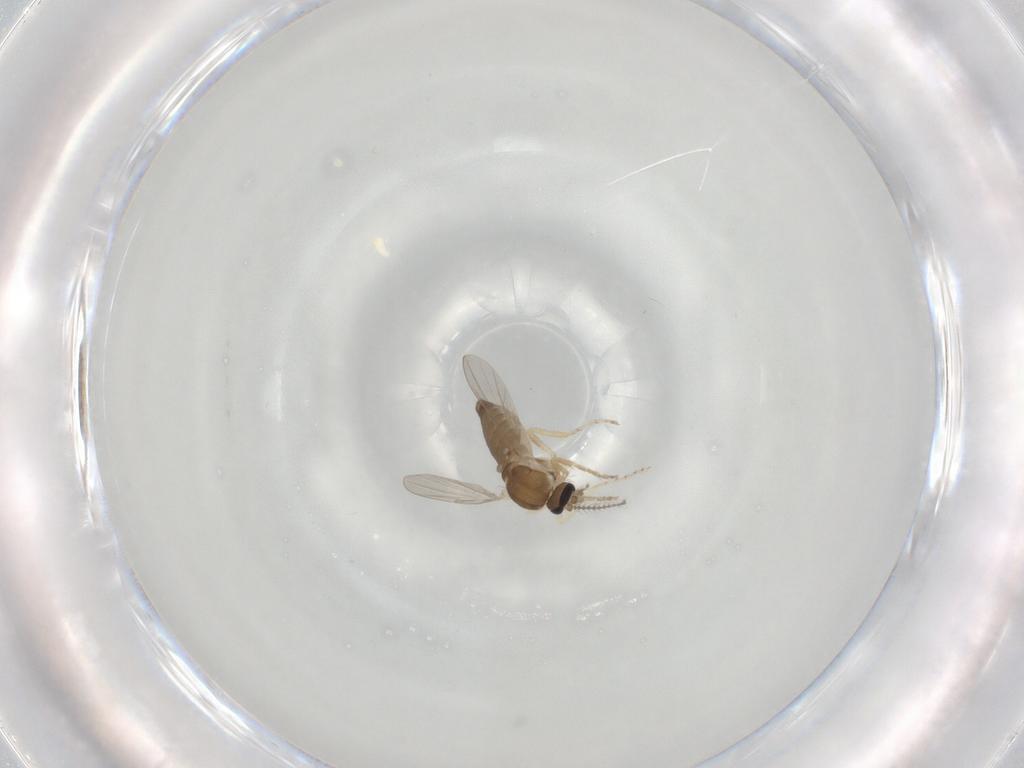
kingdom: Animalia
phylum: Arthropoda
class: Insecta
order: Diptera
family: Ceratopogonidae
